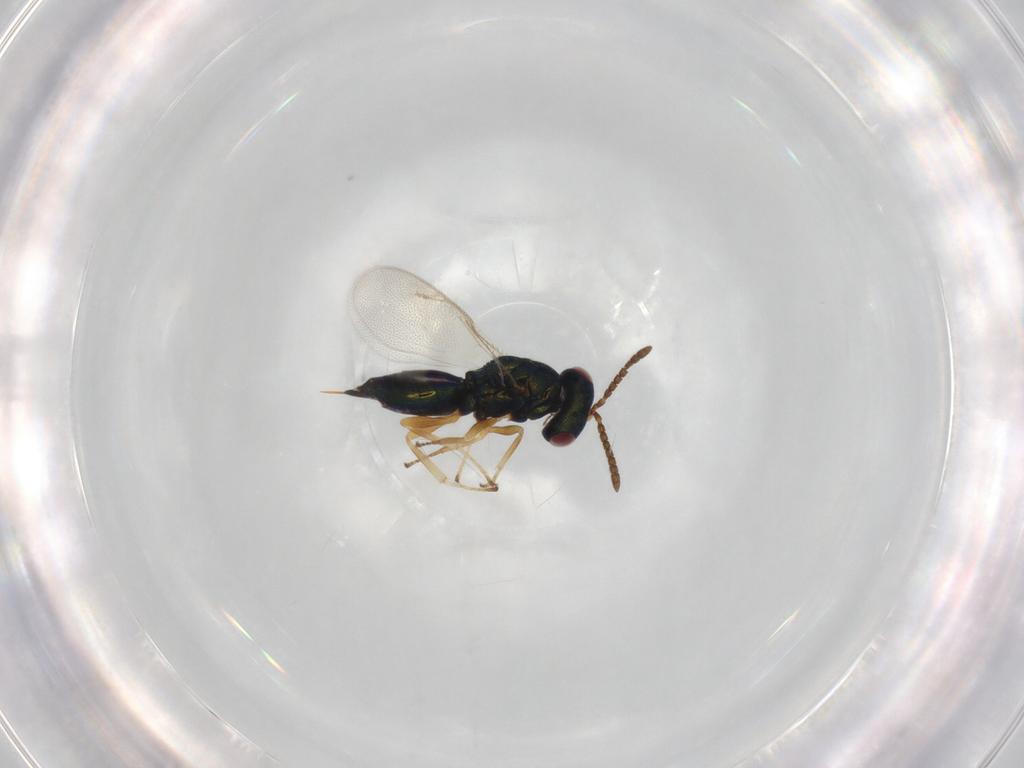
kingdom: Animalia
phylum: Arthropoda
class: Insecta
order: Hymenoptera
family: Pteromalidae
